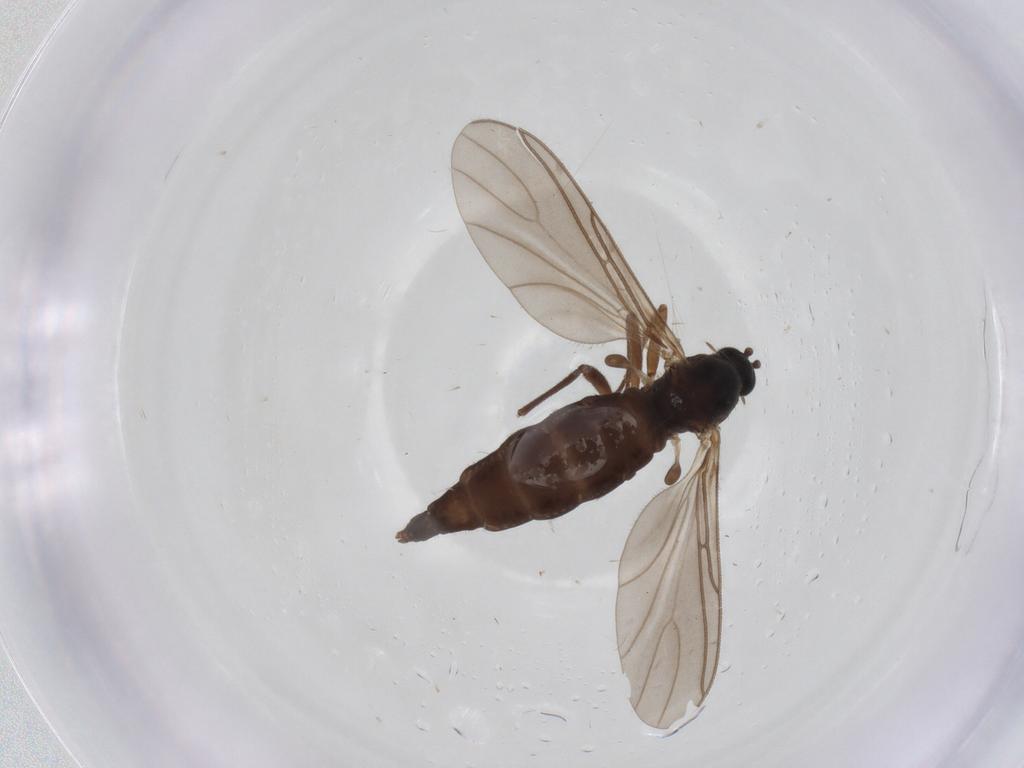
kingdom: Animalia
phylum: Arthropoda
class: Insecta
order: Diptera
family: Sciaridae
